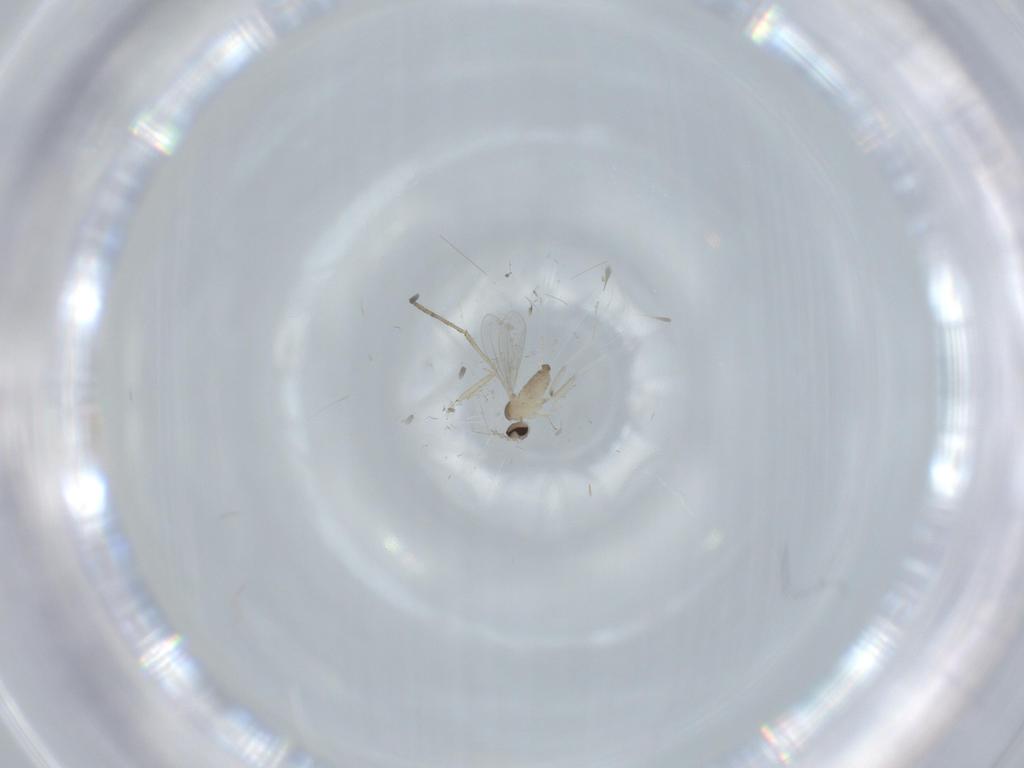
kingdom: Animalia
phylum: Arthropoda
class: Insecta
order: Diptera
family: Cecidomyiidae
